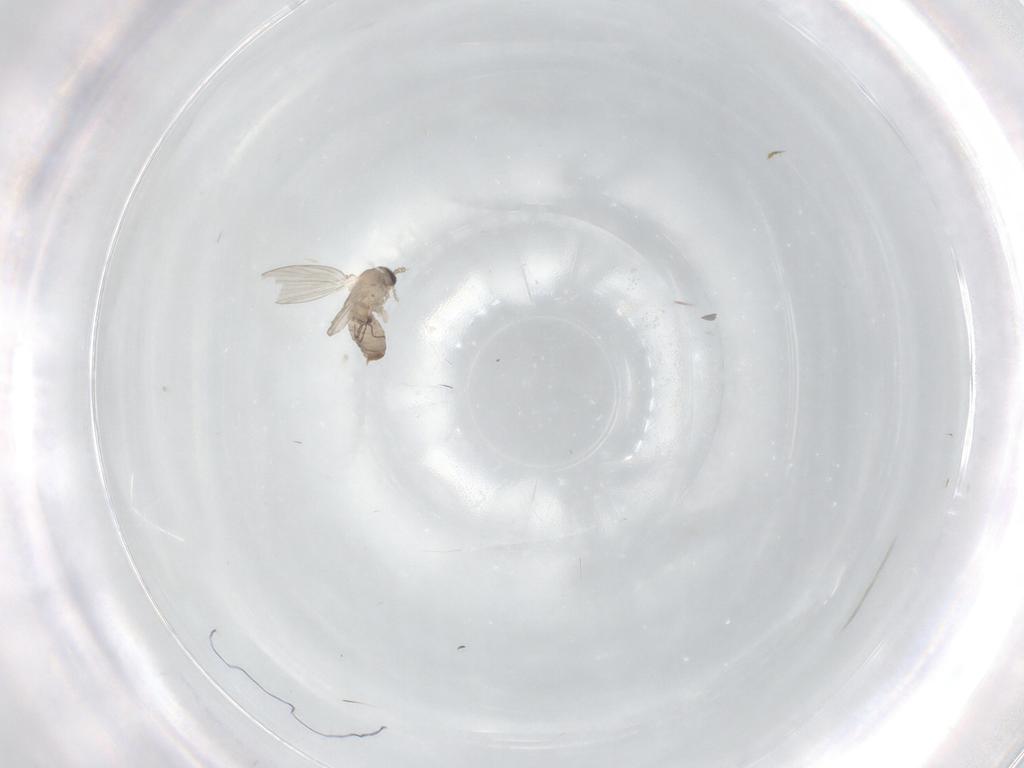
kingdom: Animalia
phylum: Arthropoda
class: Insecta
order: Diptera
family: Psychodidae
